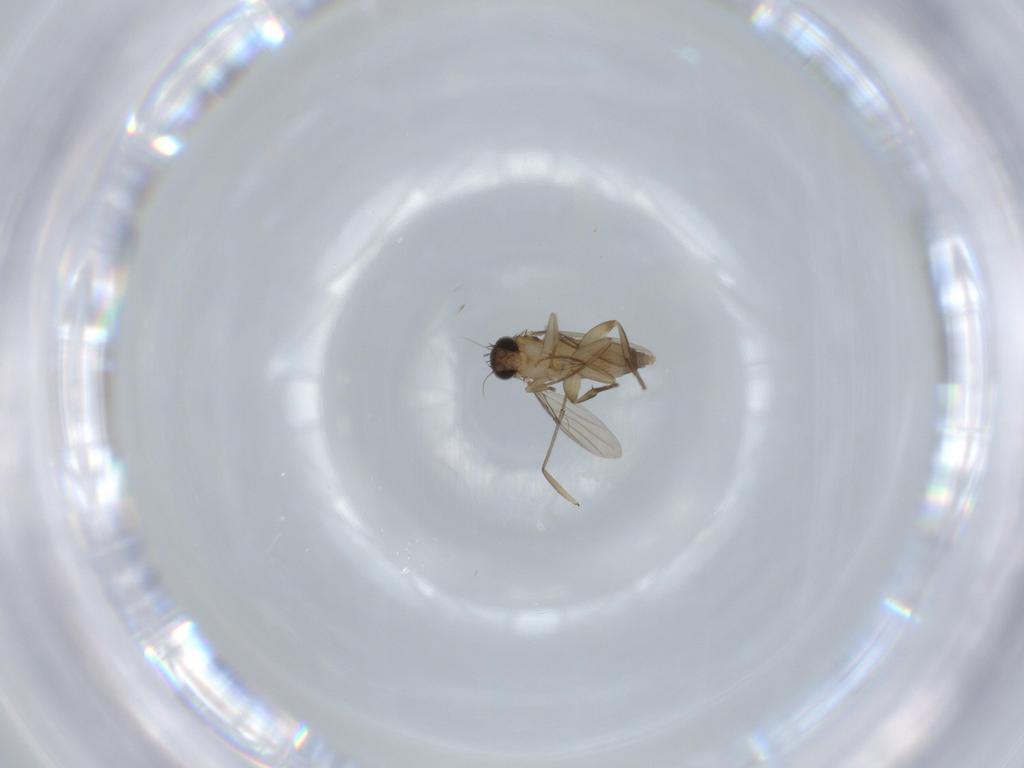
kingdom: Animalia
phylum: Arthropoda
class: Insecta
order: Diptera
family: Phoridae
